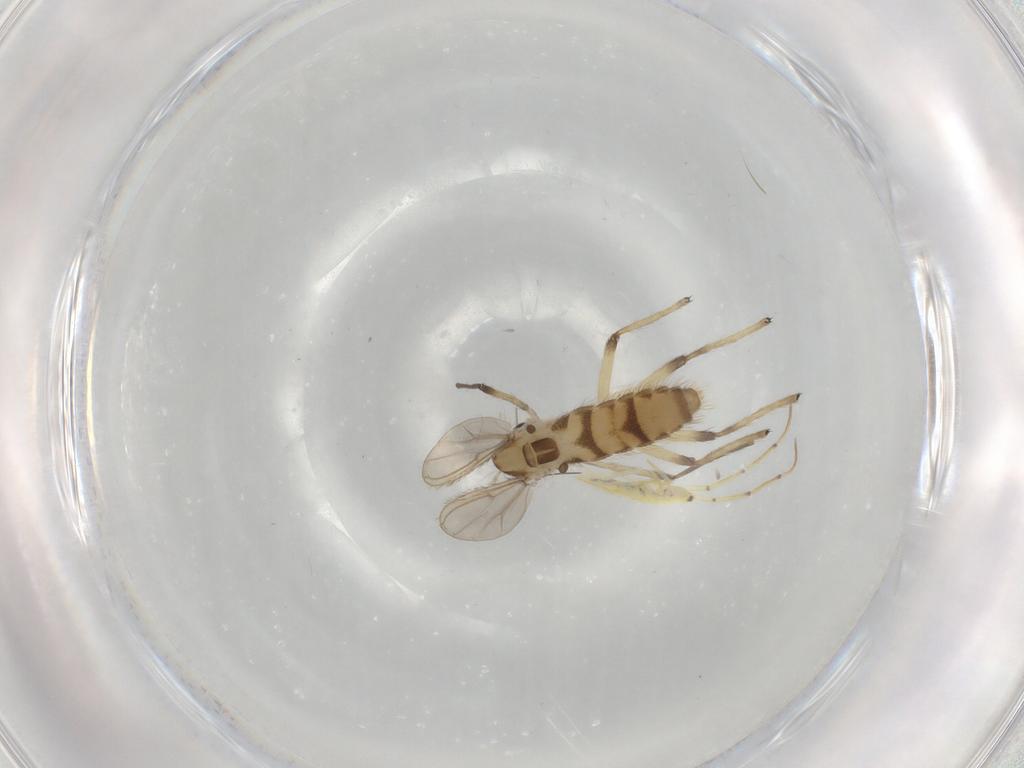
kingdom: Animalia
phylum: Arthropoda
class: Insecta
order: Diptera
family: Chironomidae
